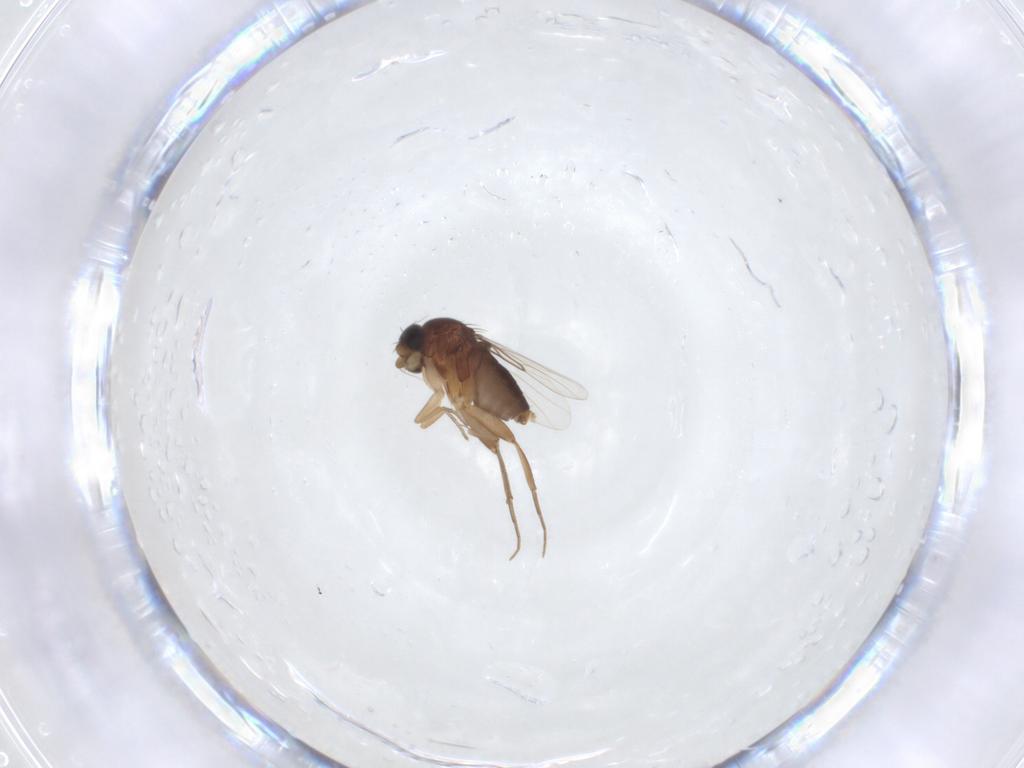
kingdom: Animalia
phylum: Arthropoda
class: Insecta
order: Diptera
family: Phoridae
